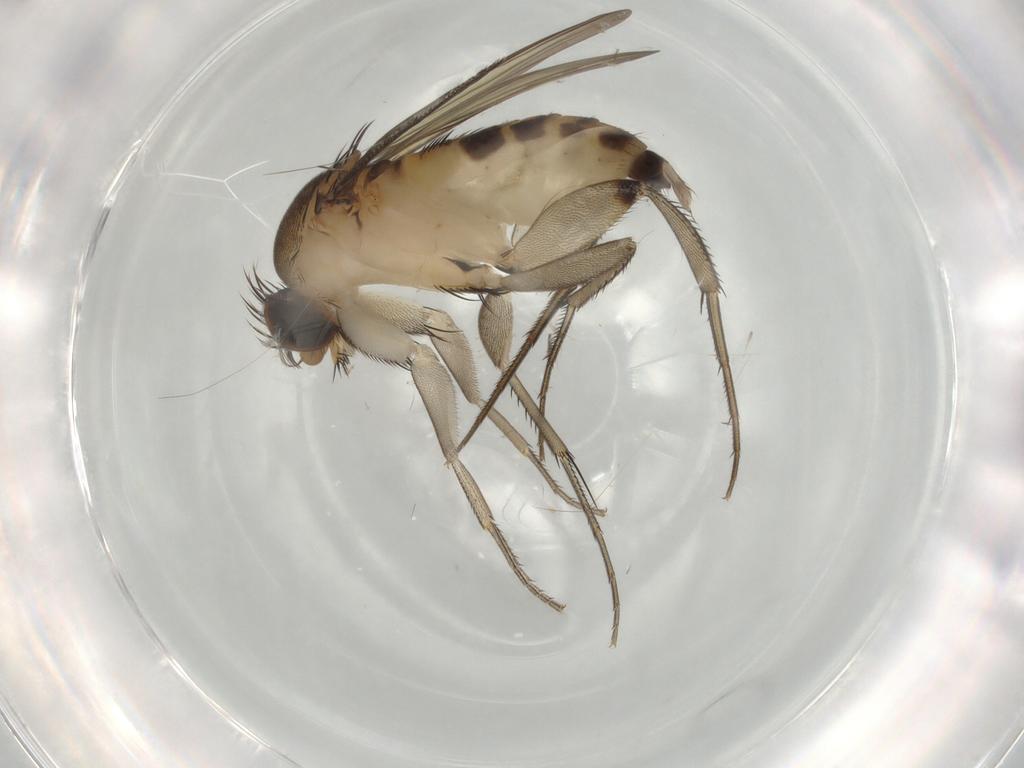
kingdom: Animalia
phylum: Arthropoda
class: Insecta
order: Diptera
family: Phoridae
